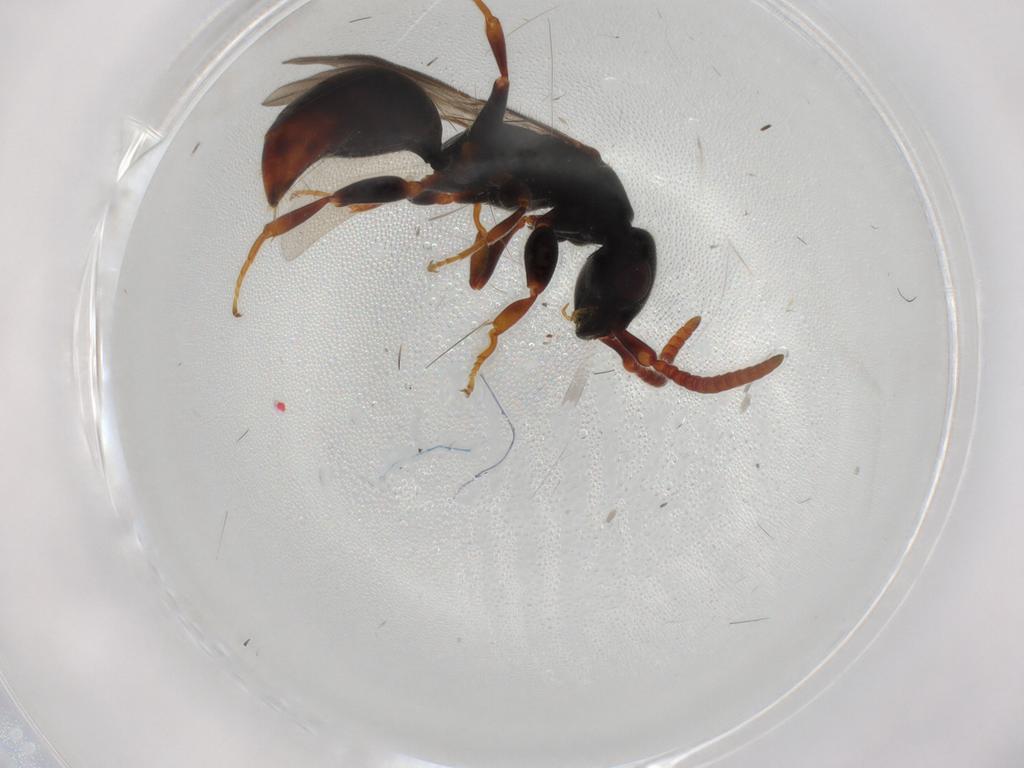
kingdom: Animalia
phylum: Arthropoda
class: Insecta
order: Hymenoptera
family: Bethylidae
